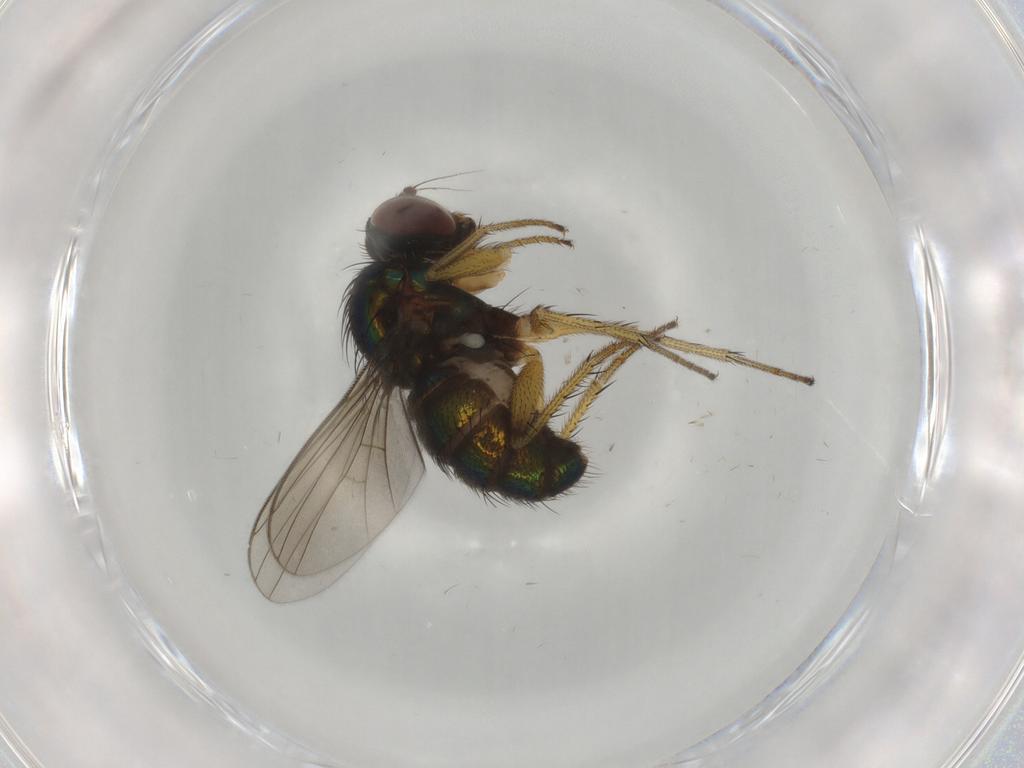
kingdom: Animalia
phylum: Arthropoda
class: Insecta
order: Diptera
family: Dolichopodidae
